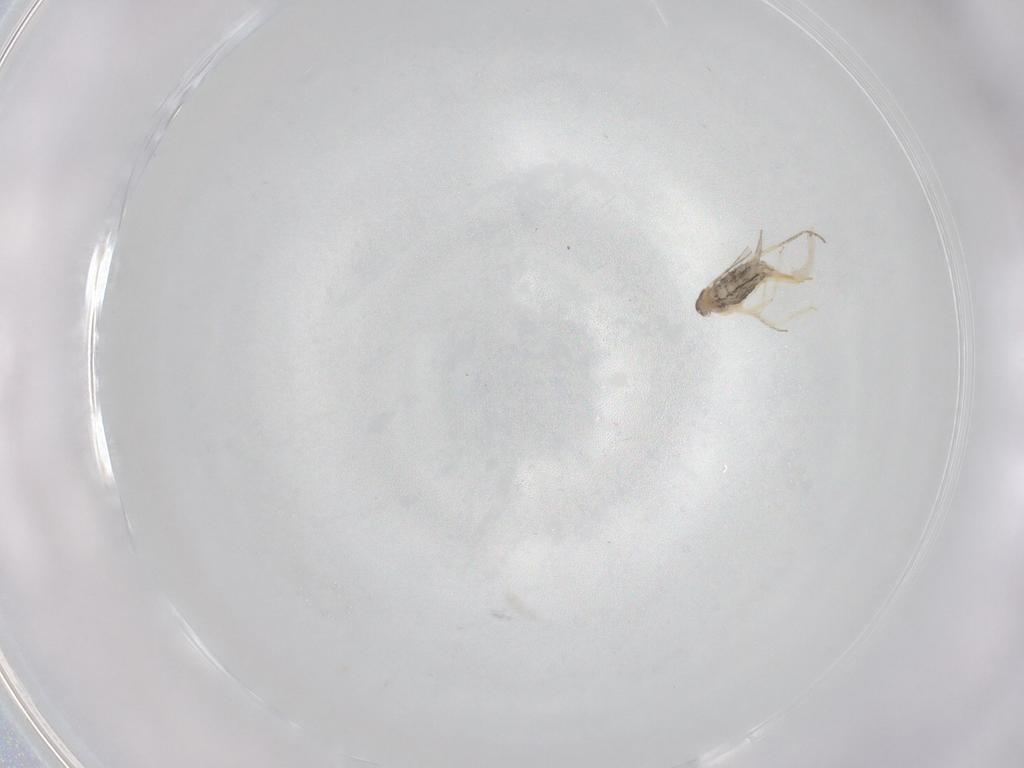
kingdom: Animalia
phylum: Arthropoda
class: Insecta
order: Diptera
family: Cecidomyiidae
